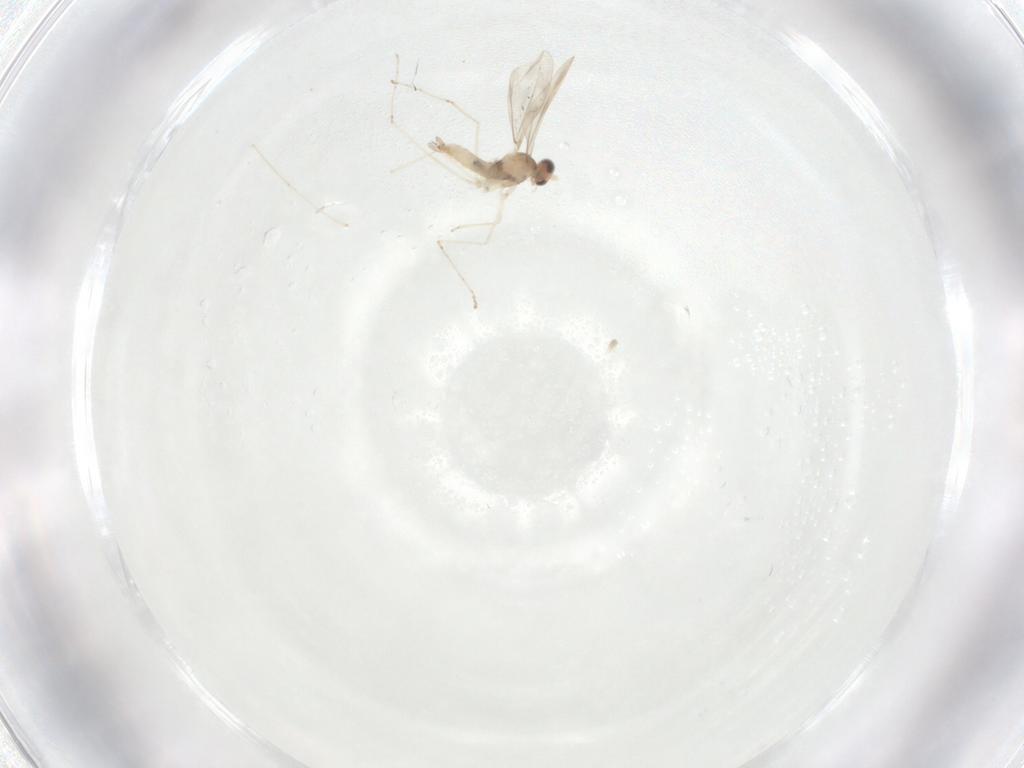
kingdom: Animalia
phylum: Arthropoda
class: Insecta
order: Diptera
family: Cecidomyiidae
